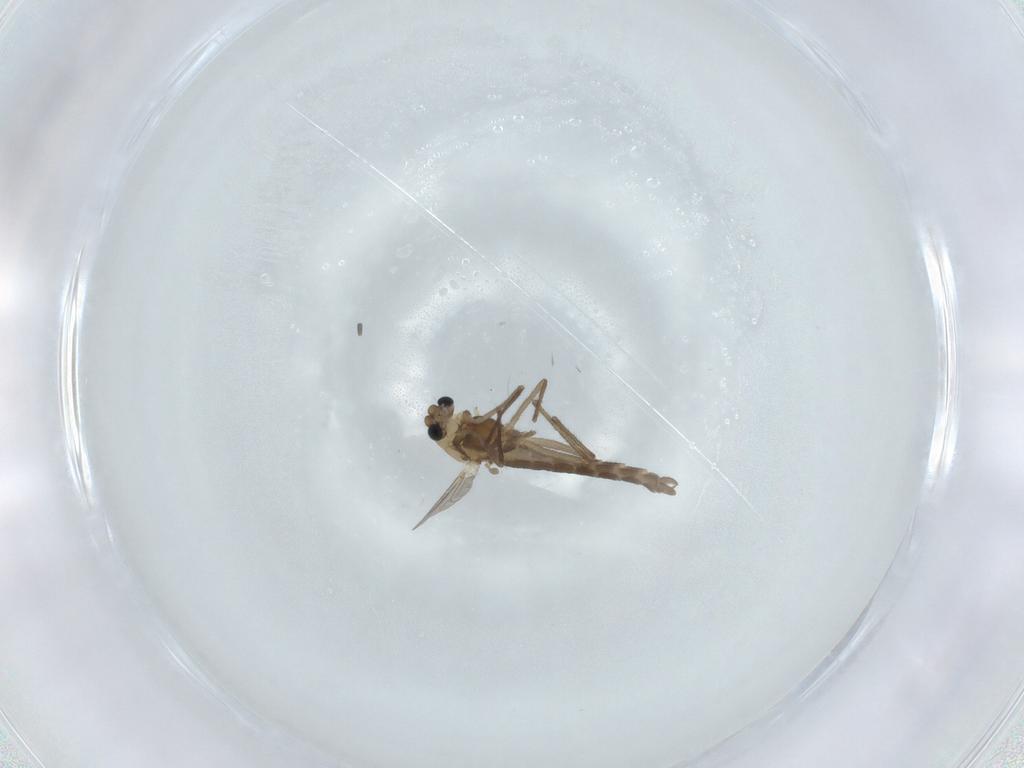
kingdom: Animalia
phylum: Arthropoda
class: Insecta
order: Diptera
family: Chironomidae
